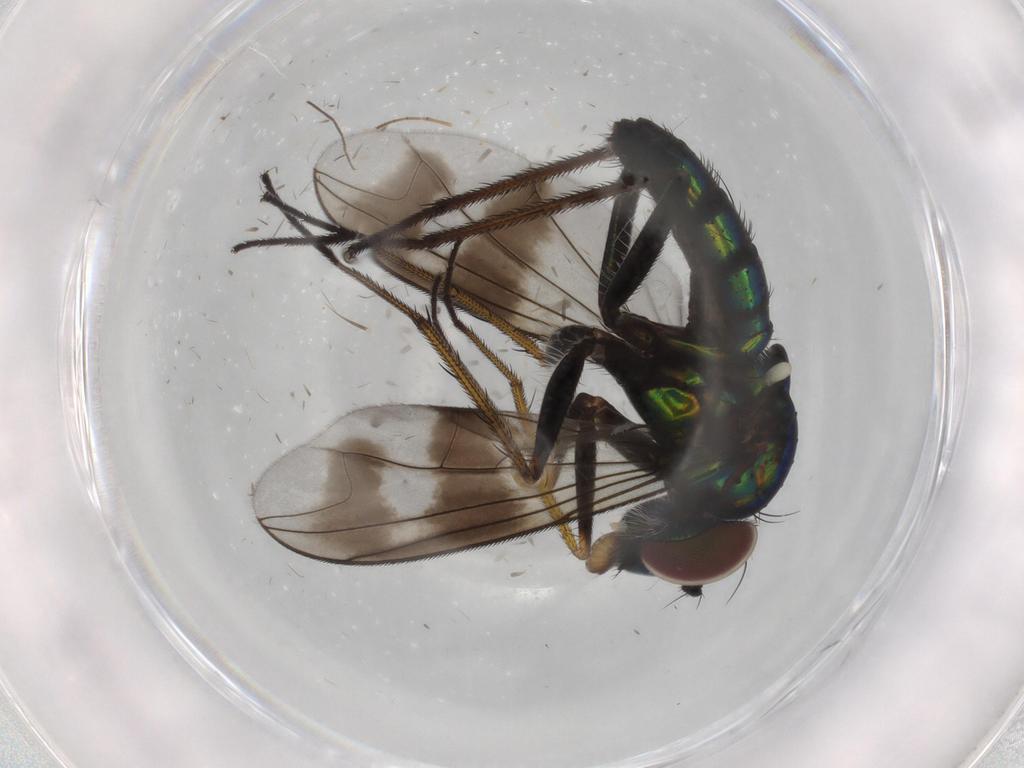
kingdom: Animalia
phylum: Arthropoda
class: Insecta
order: Diptera
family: Dolichopodidae
